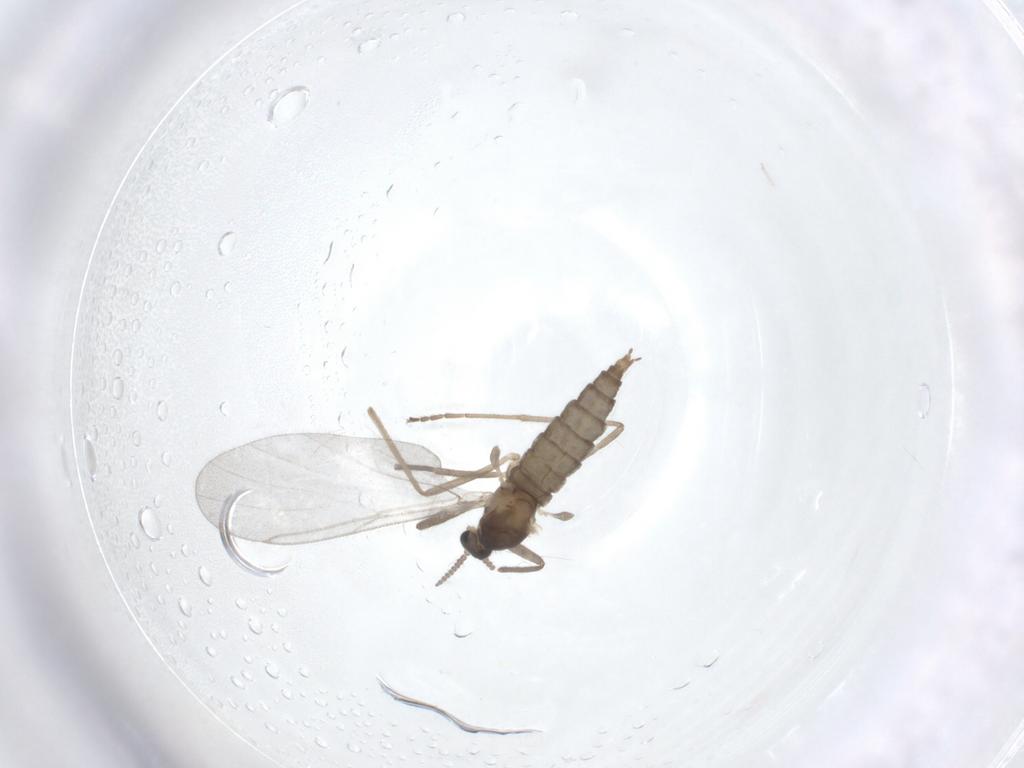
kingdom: Animalia
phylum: Arthropoda
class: Insecta
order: Diptera
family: Cecidomyiidae
